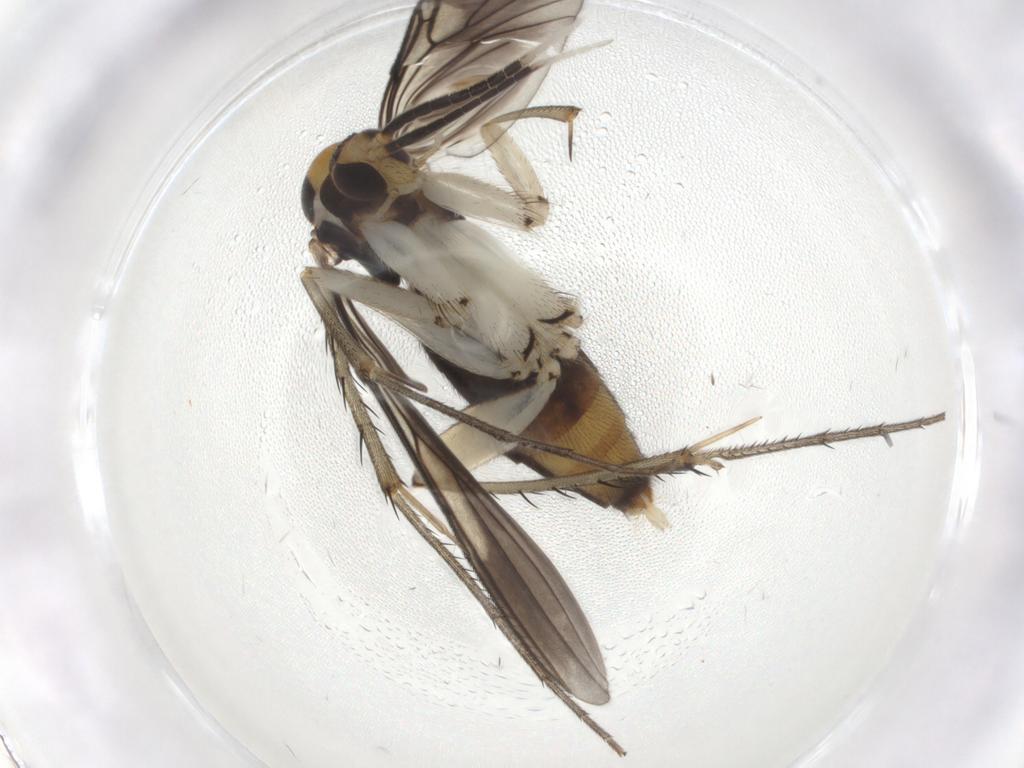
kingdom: Animalia
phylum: Arthropoda
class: Insecta
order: Diptera
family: Mycetophilidae
